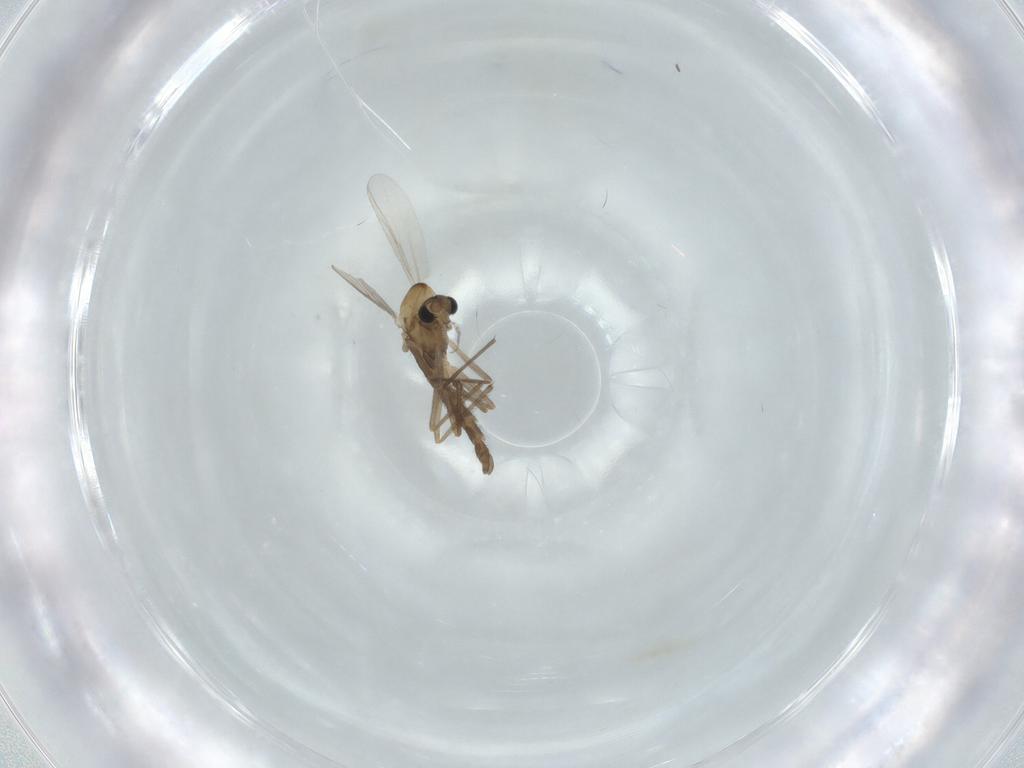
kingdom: Animalia
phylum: Arthropoda
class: Insecta
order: Diptera
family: Chironomidae
